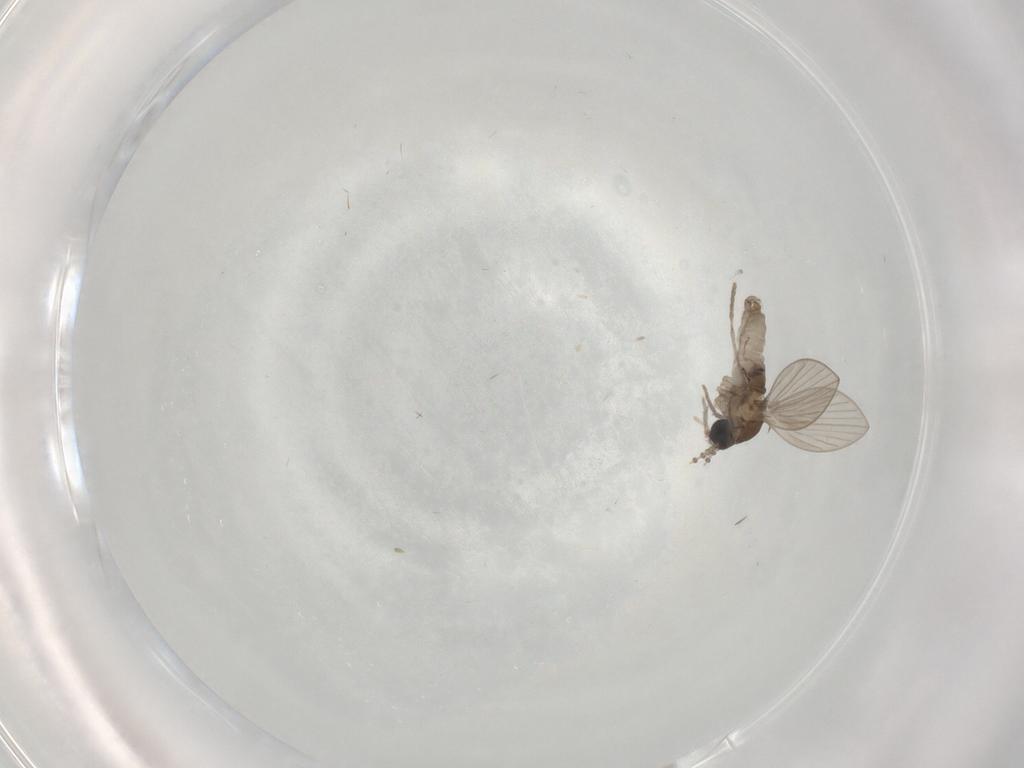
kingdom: Animalia
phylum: Arthropoda
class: Insecta
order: Diptera
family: Psychodidae
